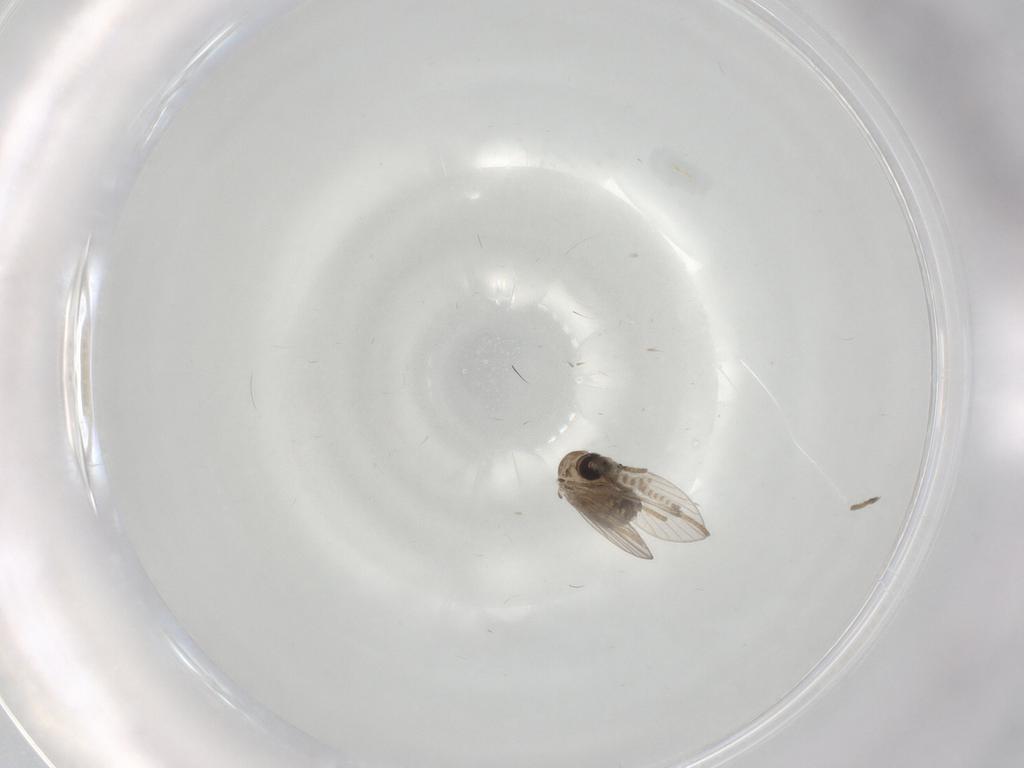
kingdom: Animalia
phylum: Arthropoda
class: Insecta
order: Diptera
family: Psychodidae
